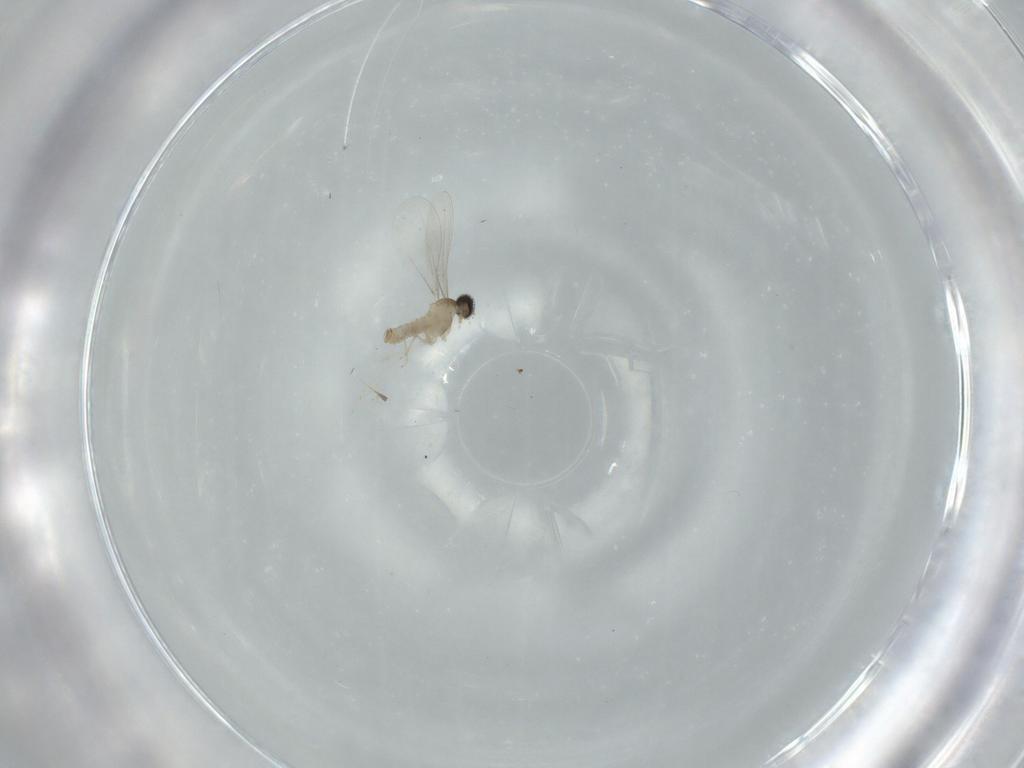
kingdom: Animalia
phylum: Arthropoda
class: Insecta
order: Diptera
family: Cecidomyiidae
